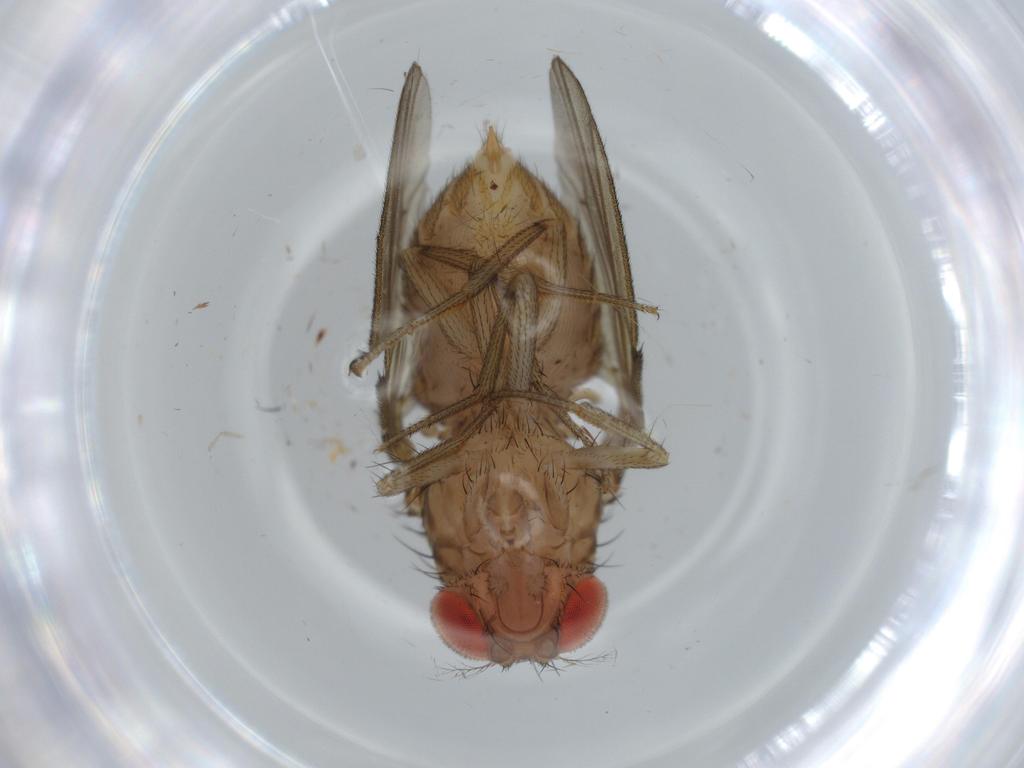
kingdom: Animalia
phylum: Arthropoda
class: Insecta
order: Diptera
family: Cecidomyiidae
